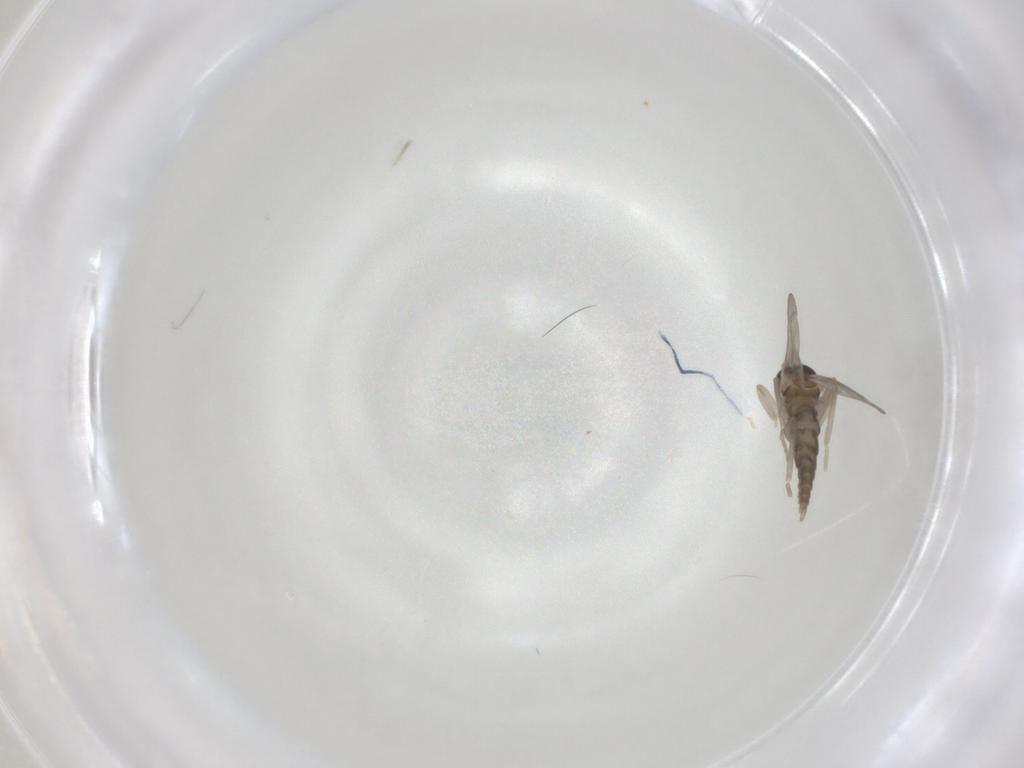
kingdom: Animalia
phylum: Arthropoda
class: Insecta
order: Diptera
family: Cecidomyiidae
